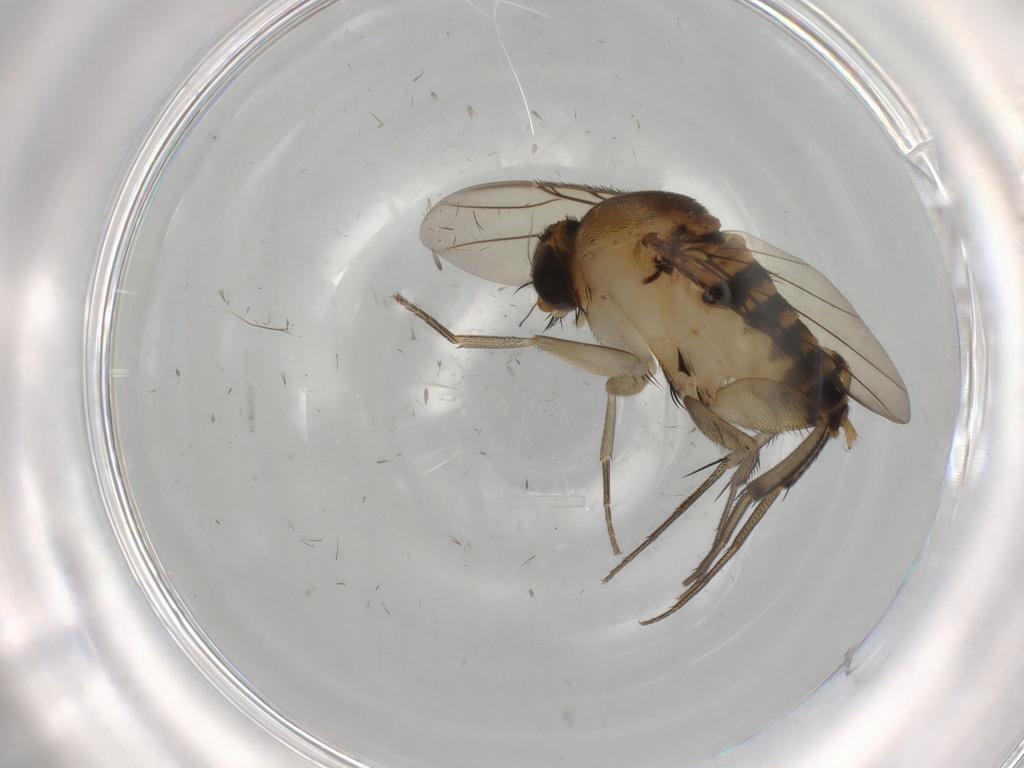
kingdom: Animalia
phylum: Arthropoda
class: Insecta
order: Diptera
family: Phoridae
